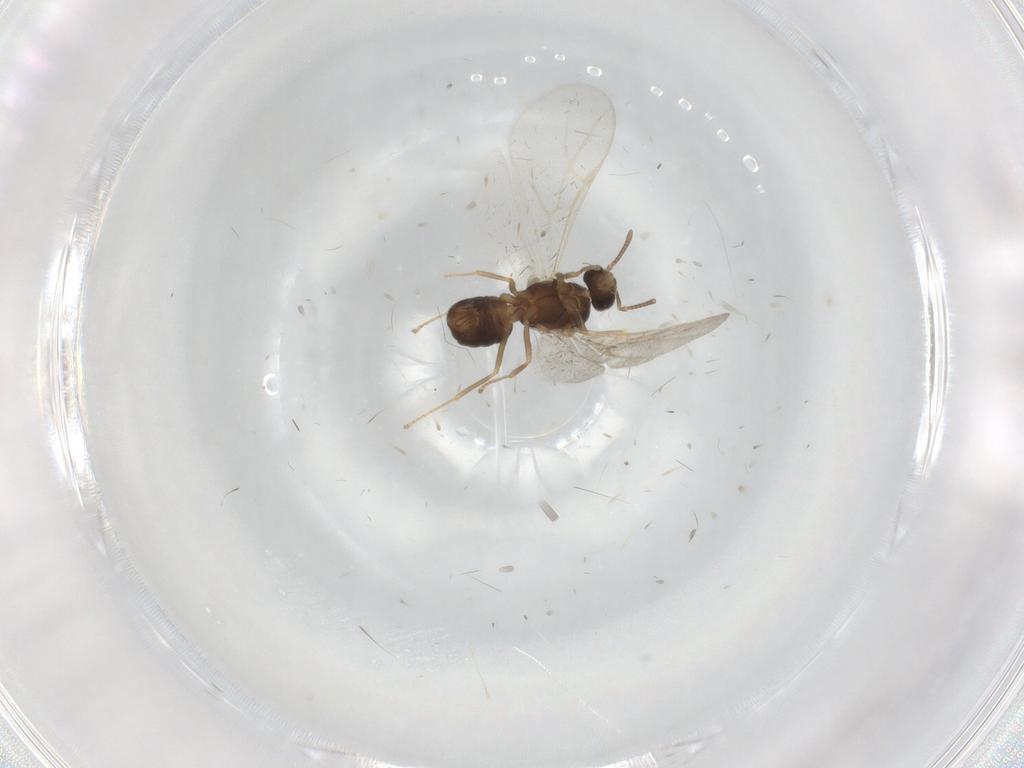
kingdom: Animalia
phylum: Arthropoda
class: Insecta
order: Hymenoptera
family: Formicidae
